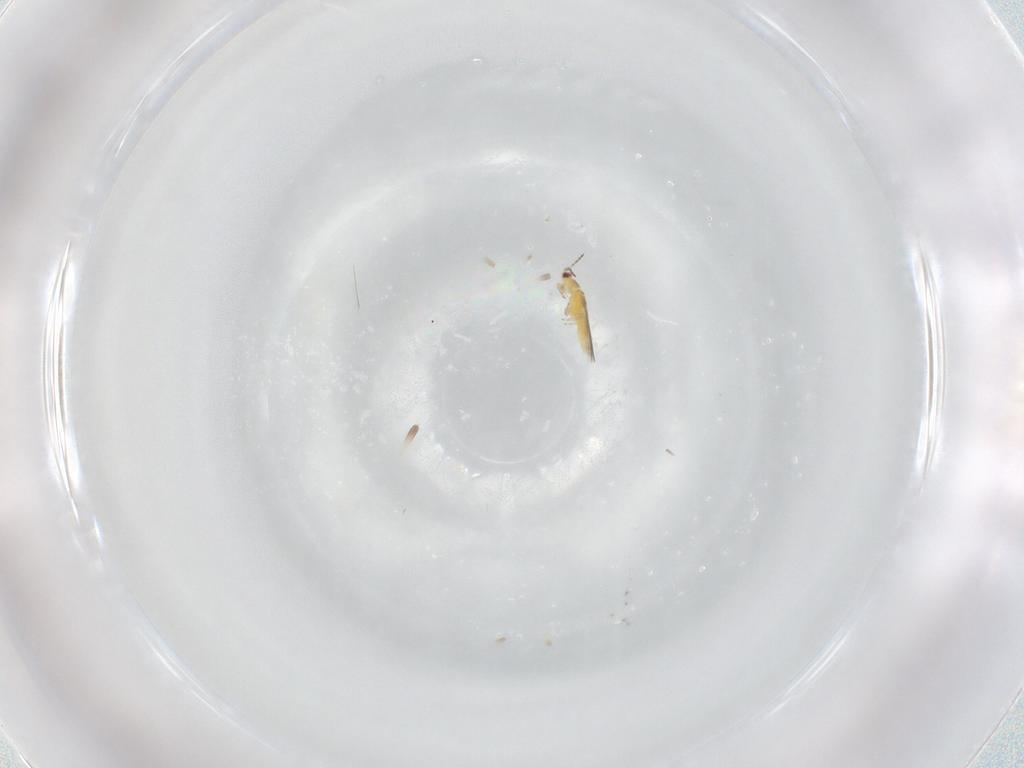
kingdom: Animalia
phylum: Arthropoda
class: Insecta
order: Thysanoptera
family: Thripidae
